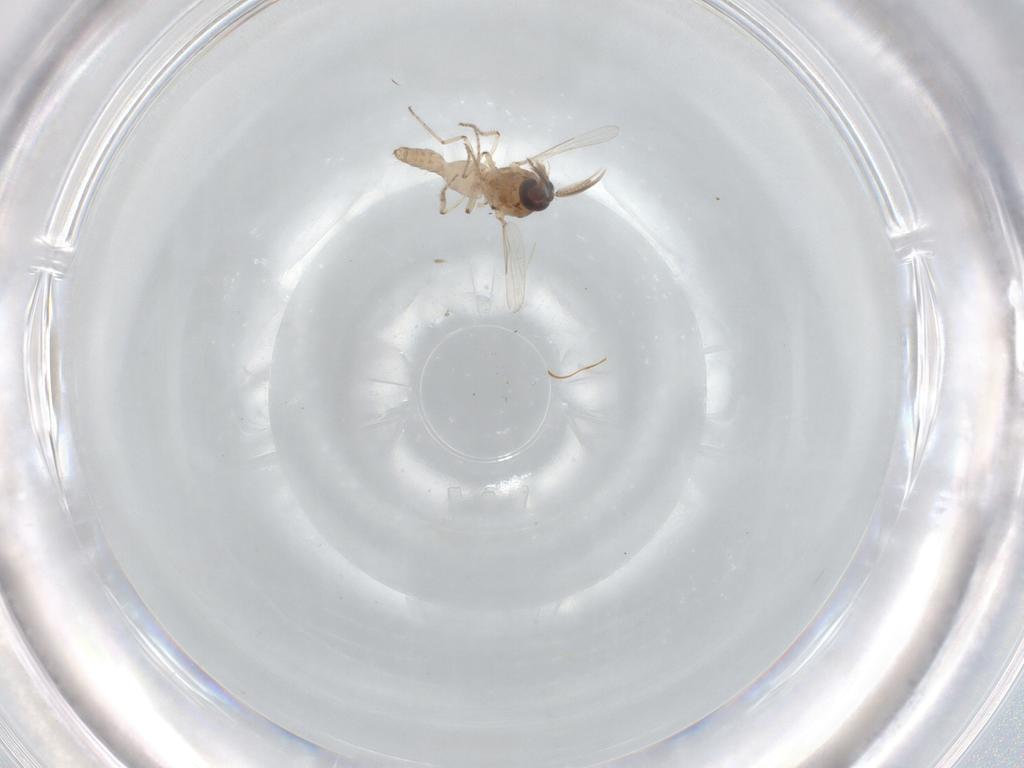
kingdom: Animalia
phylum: Arthropoda
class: Insecta
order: Diptera
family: Ceratopogonidae
